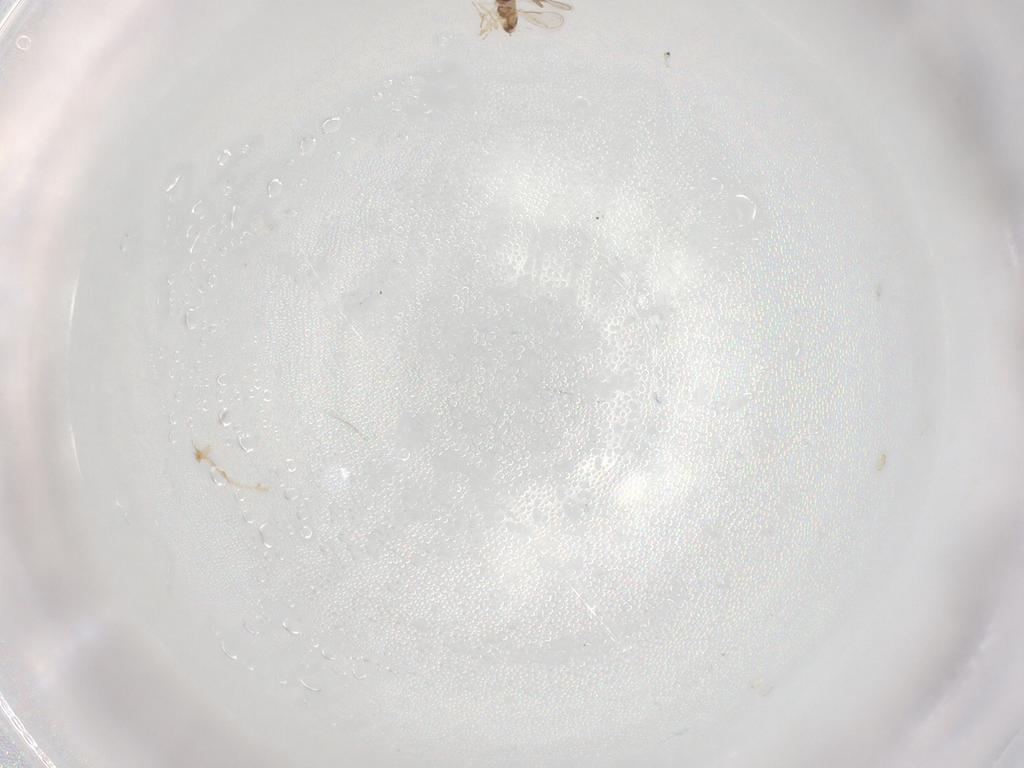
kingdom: Animalia
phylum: Arthropoda
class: Insecta
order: Hymenoptera
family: Aphelinidae
